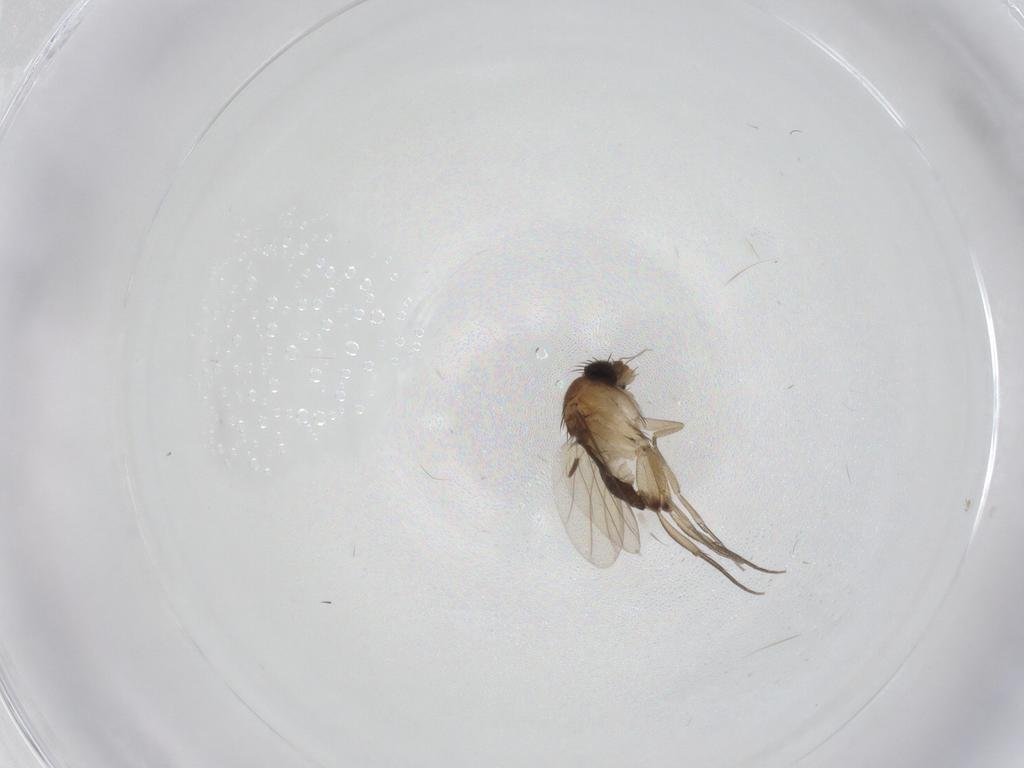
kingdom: Animalia
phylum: Arthropoda
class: Insecta
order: Diptera
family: Phoridae
